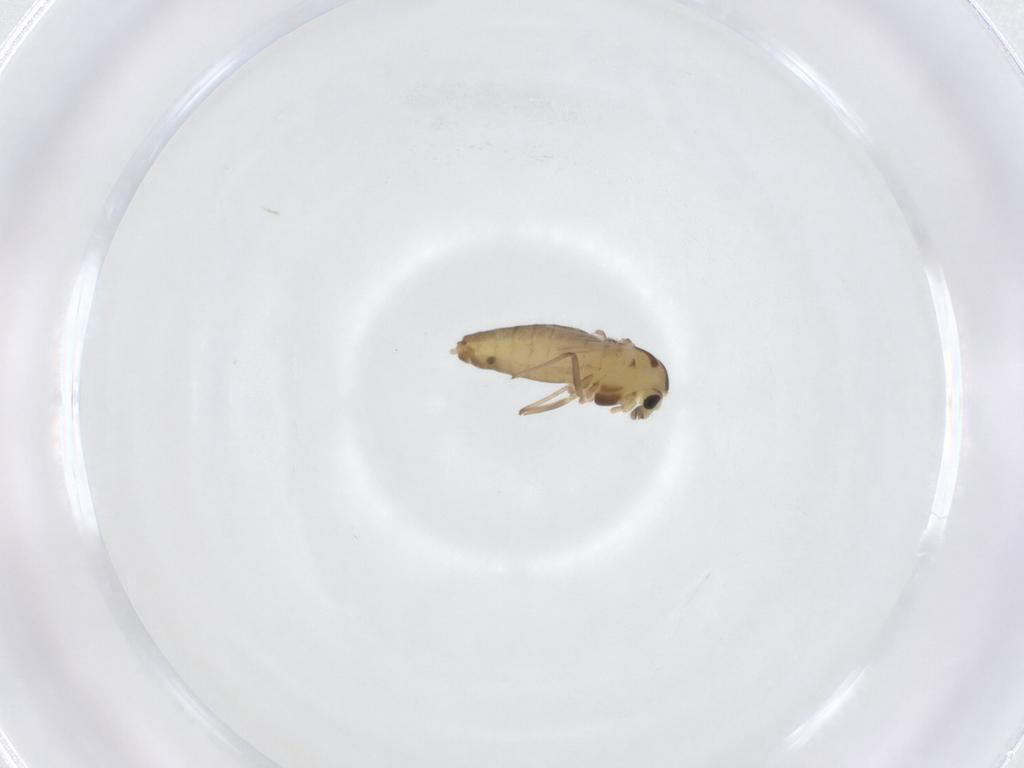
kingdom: Animalia
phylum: Arthropoda
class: Insecta
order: Diptera
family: Chironomidae
